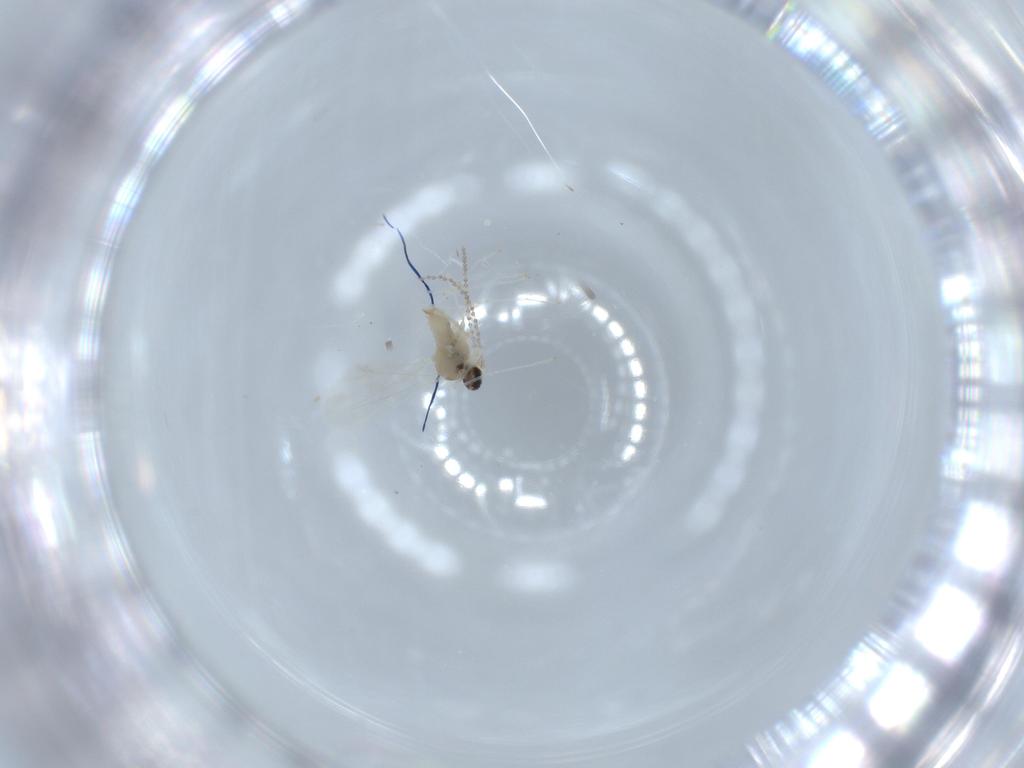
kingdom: Animalia
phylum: Arthropoda
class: Insecta
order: Diptera
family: Cecidomyiidae
